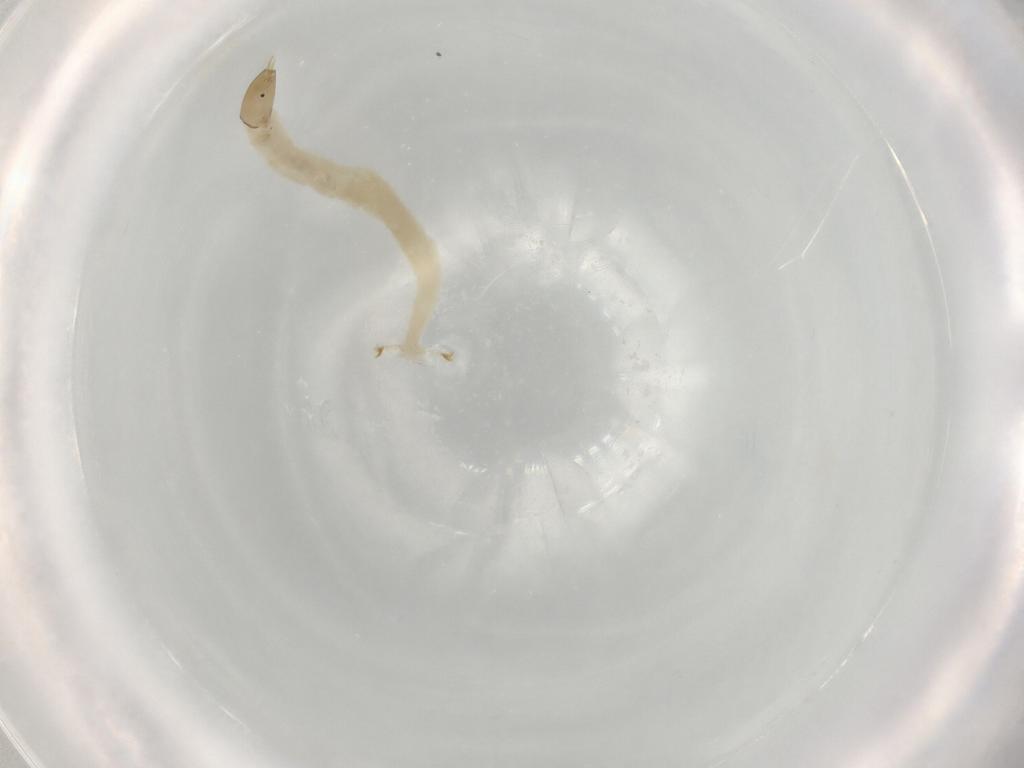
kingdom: Animalia
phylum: Arthropoda
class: Insecta
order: Diptera
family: Chironomidae
